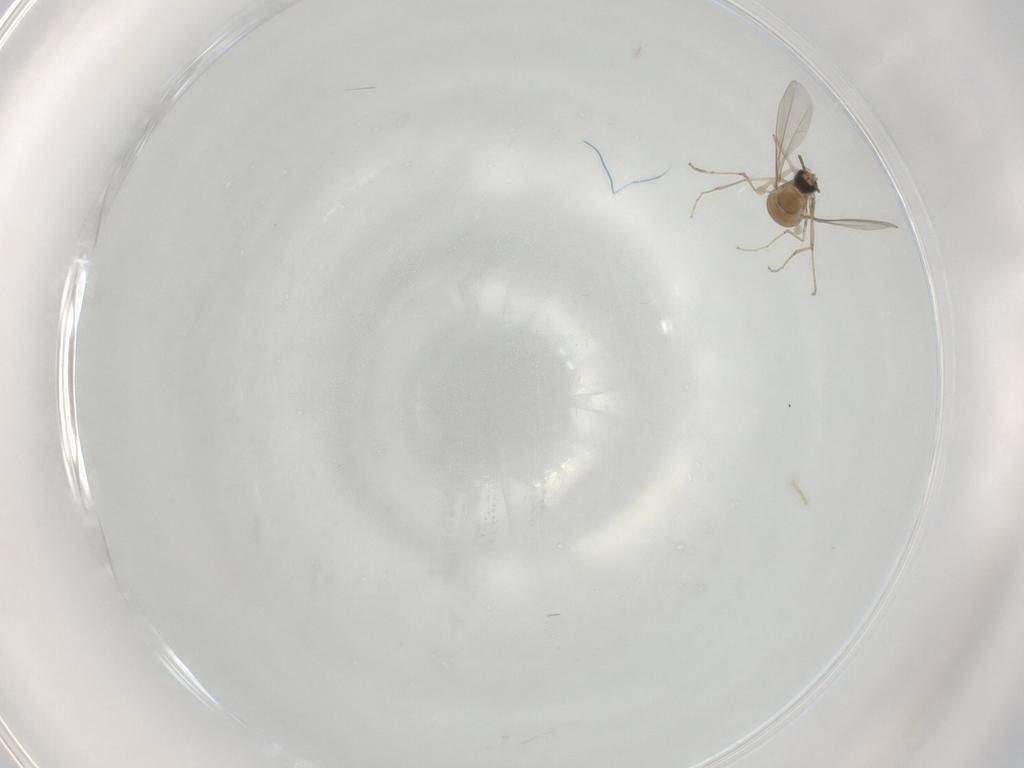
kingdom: Animalia
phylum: Arthropoda
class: Insecta
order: Diptera
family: Cecidomyiidae
